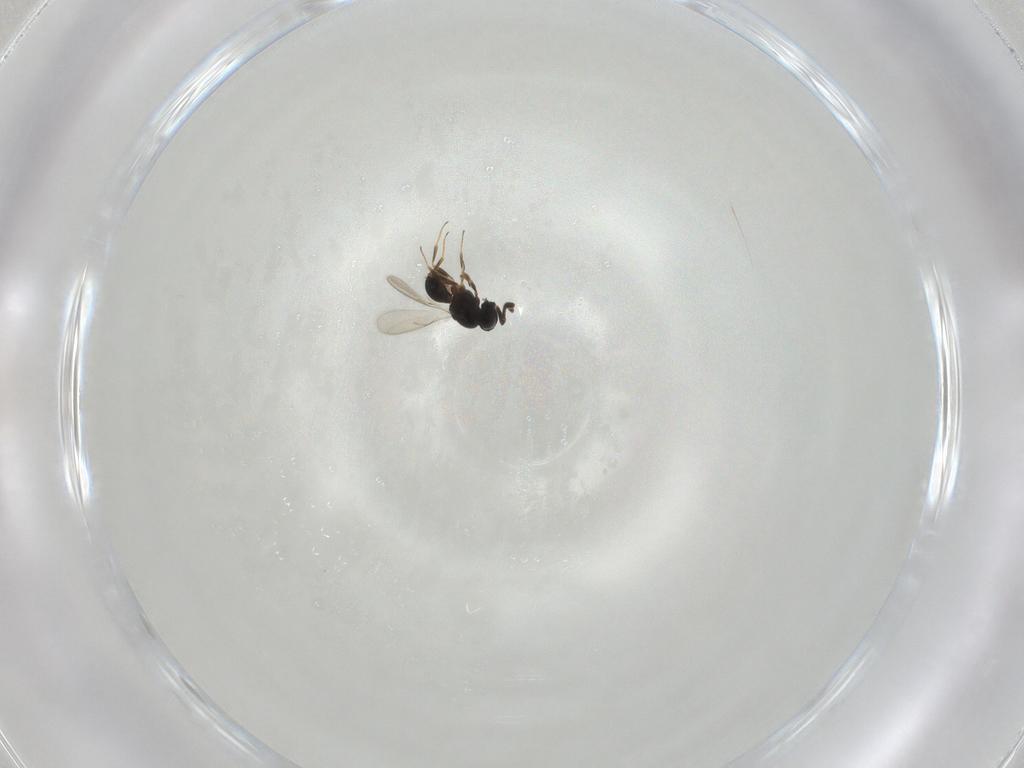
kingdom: Animalia
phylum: Arthropoda
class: Insecta
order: Hymenoptera
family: Scelionidae
